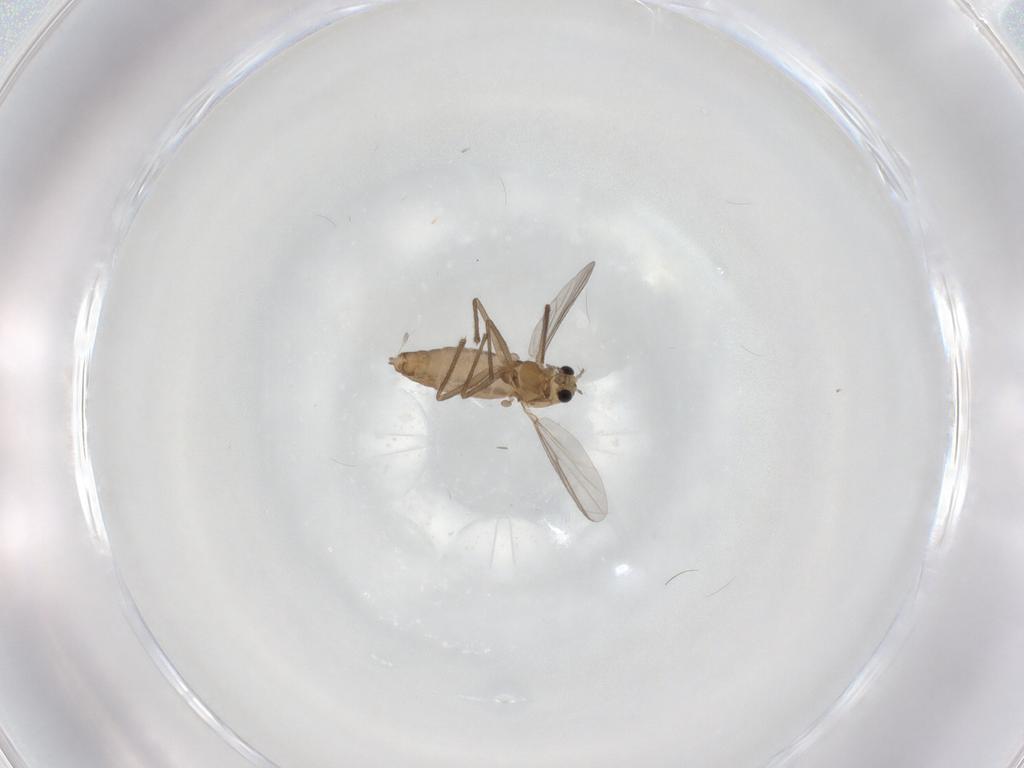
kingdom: Animalia
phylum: Arthropoda
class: Insecta
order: Diptera
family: Chironomidae
